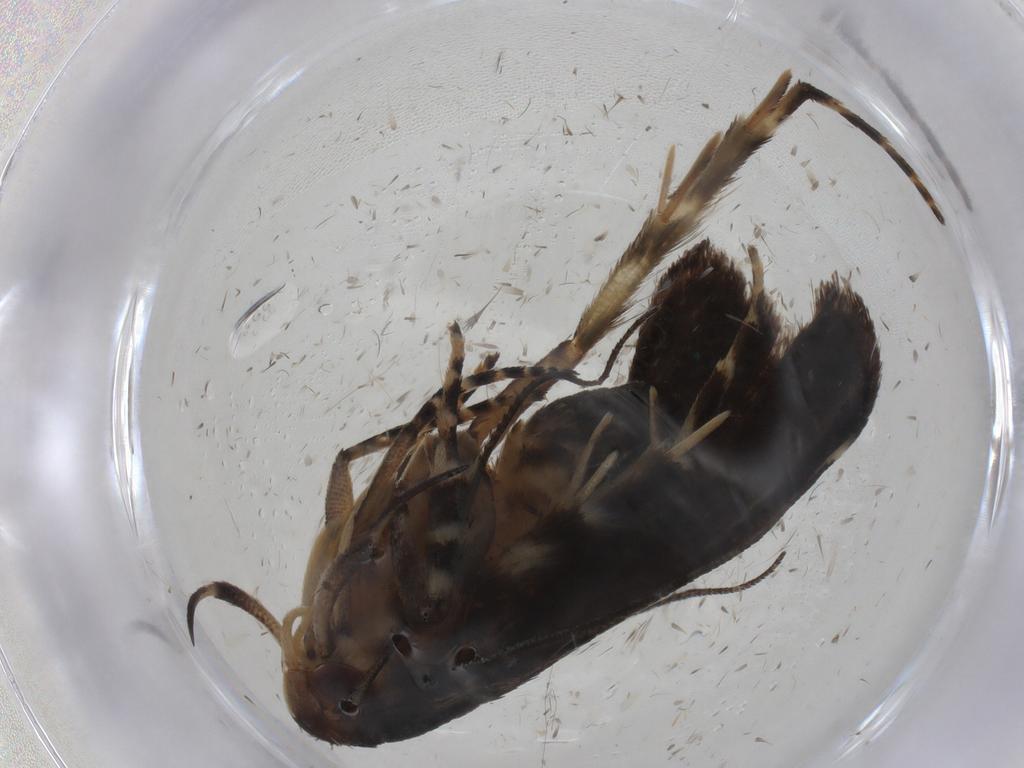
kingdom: Animalia
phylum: Arthropoda
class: Insecta
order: Lepidoptera
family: Crambidae
